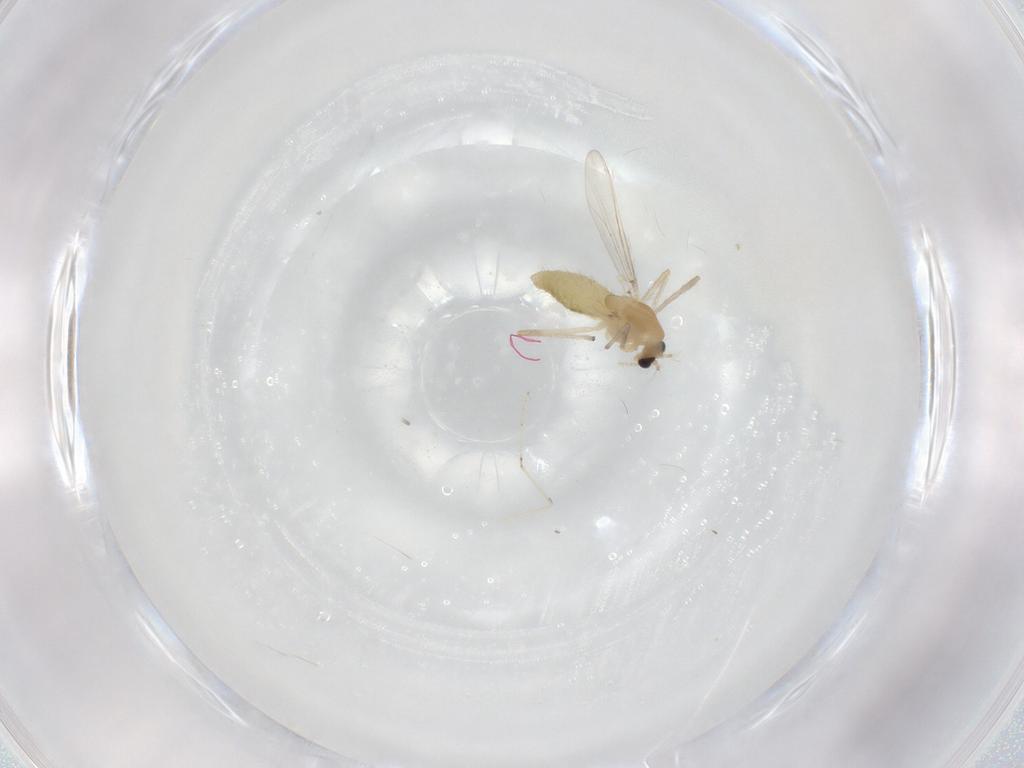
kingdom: Animalia
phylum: Arthropoda
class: Insecta
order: Diptera
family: Chironomidae
